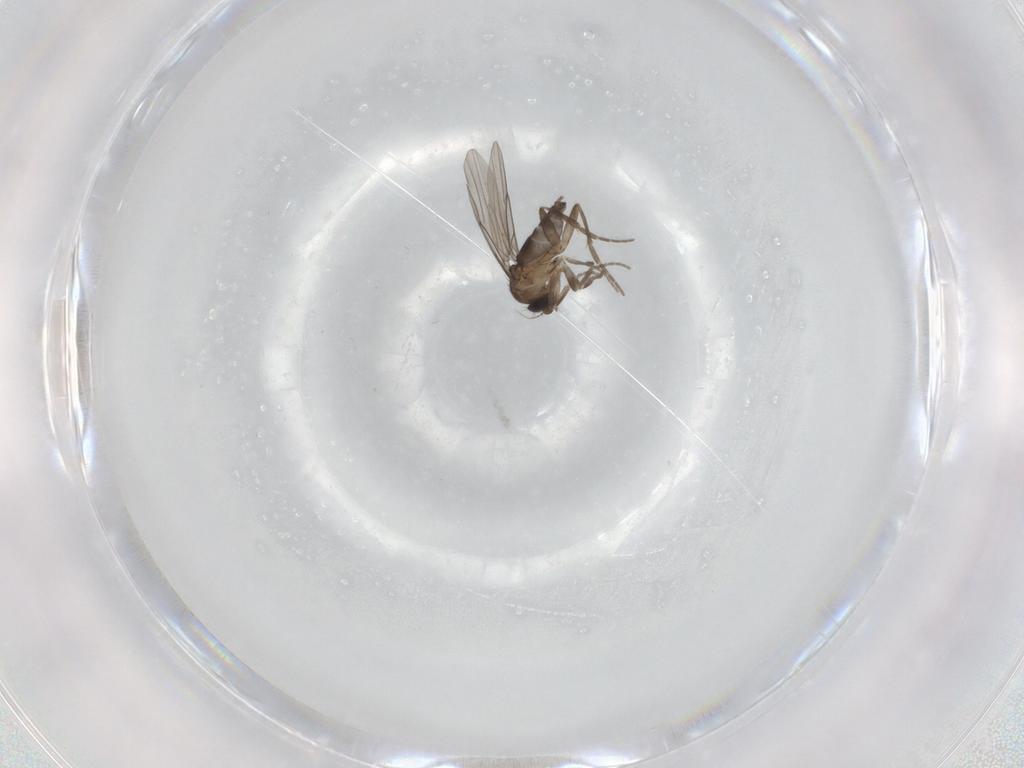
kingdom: Animalia
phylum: Arthropoda
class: Insecta
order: Diptera
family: Phoridae
